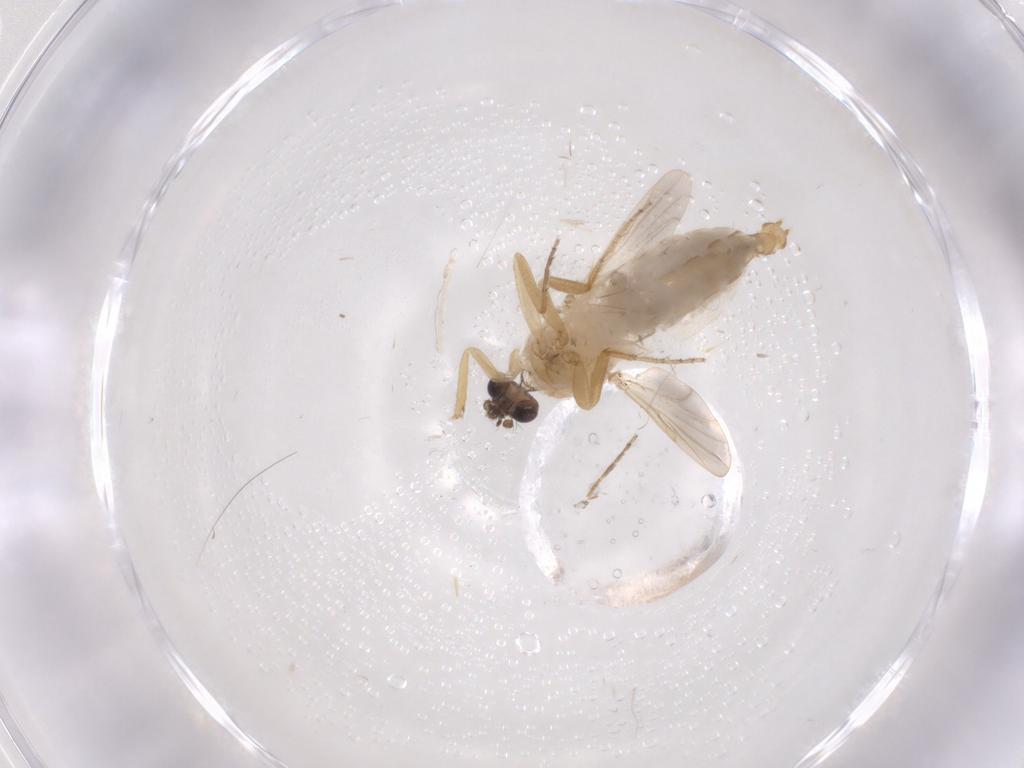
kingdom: Animalia
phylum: Arthropoda
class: Insecta
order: Diptera
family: Ceratopogonidae
